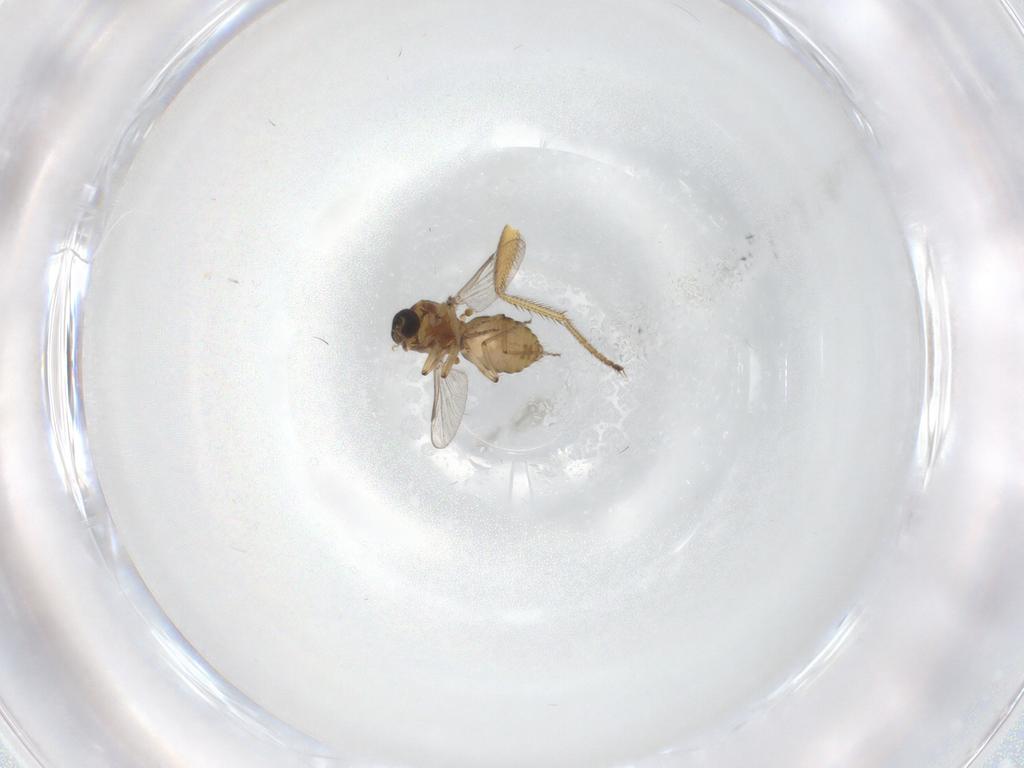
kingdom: Animalia
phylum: Arthropoda
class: Insecta
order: Diptera
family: Ceratopogonidae
